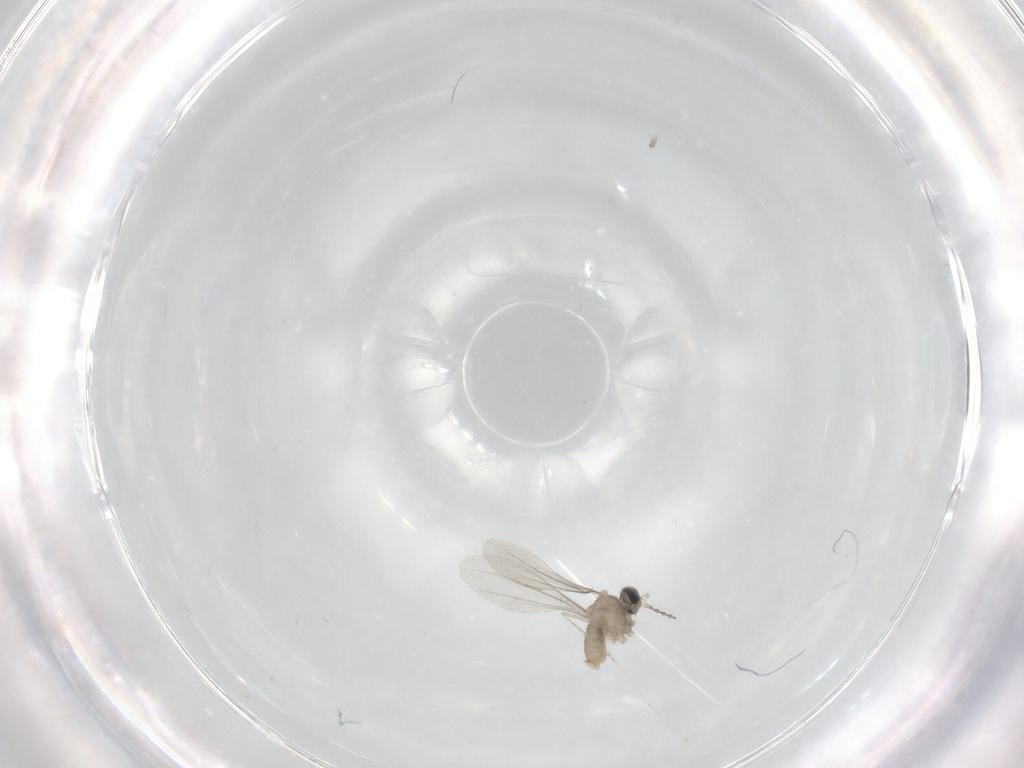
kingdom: Animalia
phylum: Arthropoda
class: Insecta
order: Diptera
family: Cecidomyiidae
